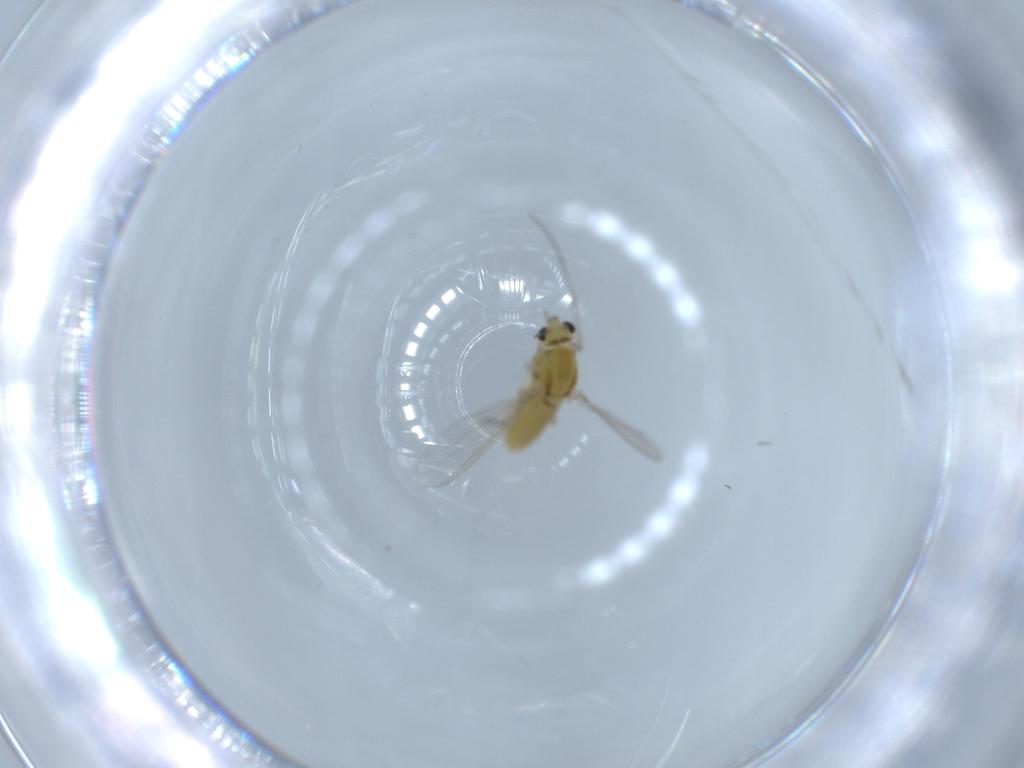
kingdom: Animalia
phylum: Arthropoda
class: Insecta
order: Diptera
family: Chironomidae
